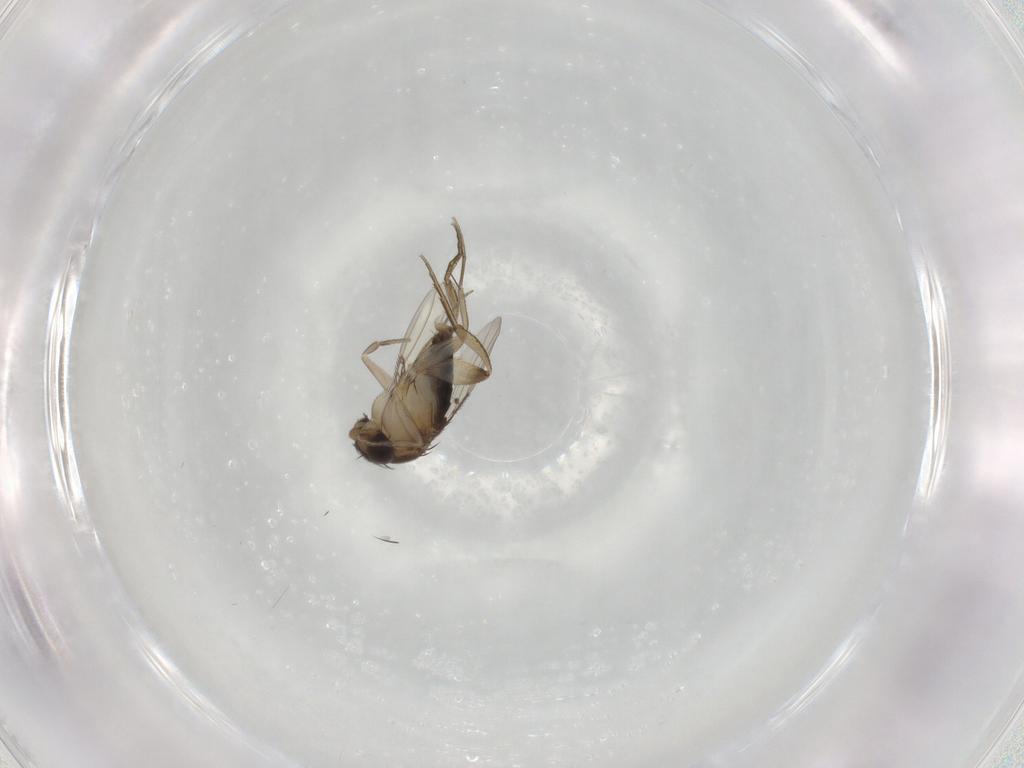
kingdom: Animalia
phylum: Arthropoda
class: Insecta
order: Diptera
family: Phoridae
